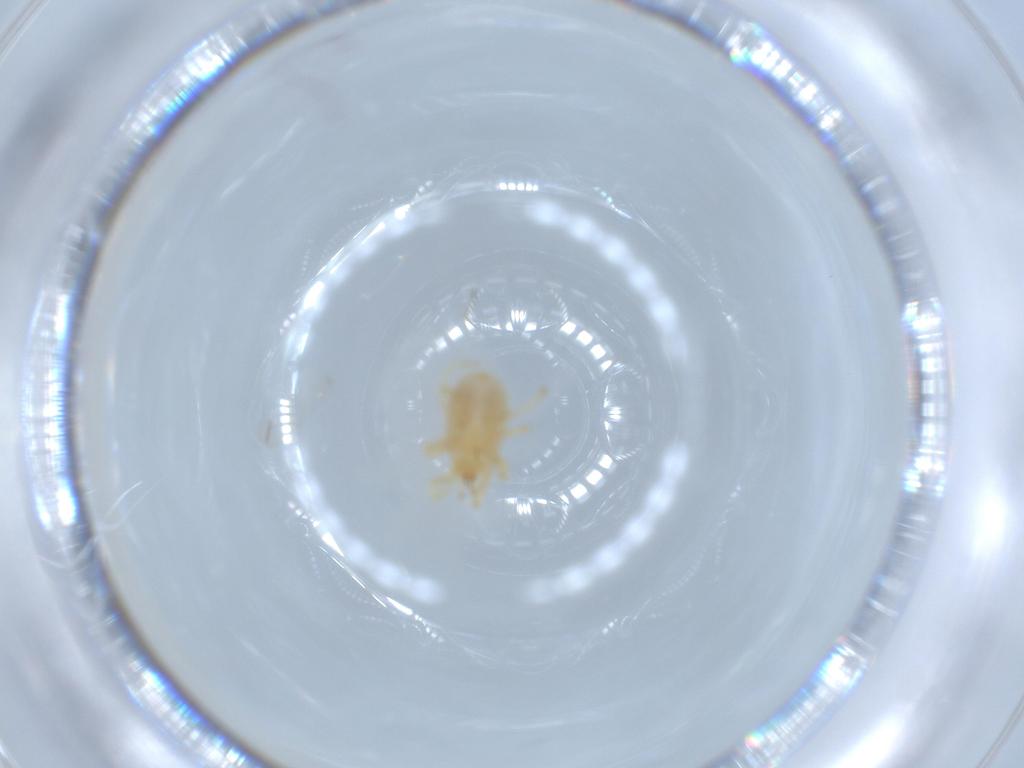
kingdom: Animalia
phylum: Arthropoda
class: Arachnida
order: Mesostigmata
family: Parasitidae
